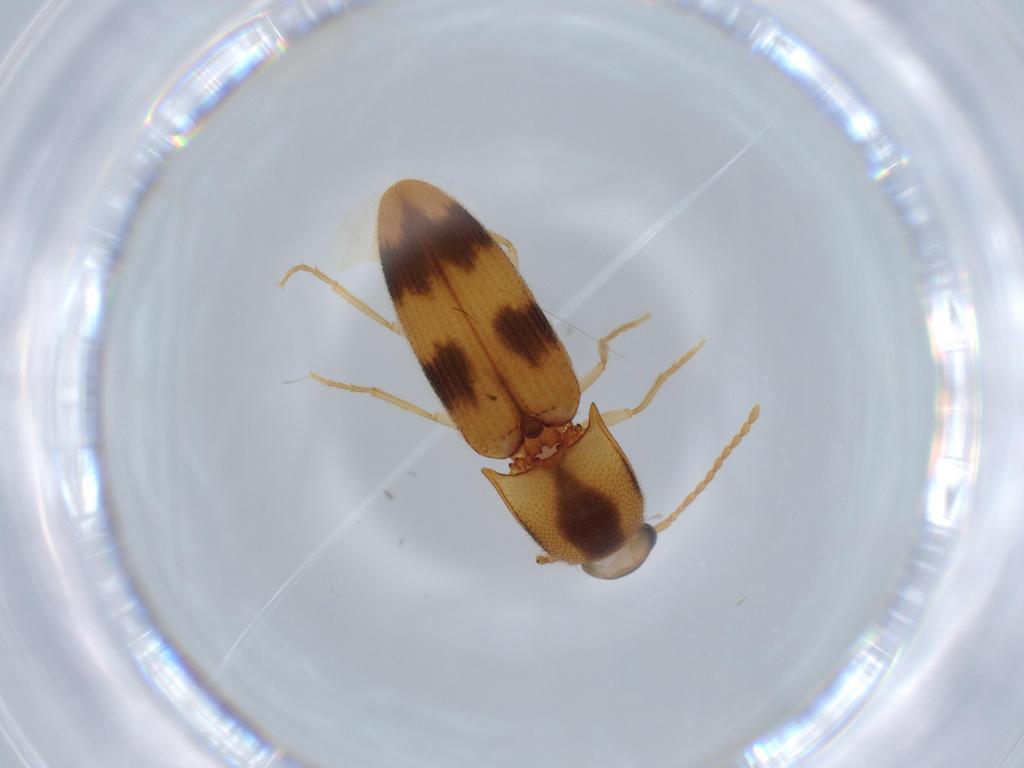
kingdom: Animalia
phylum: Arthropoda
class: Insecta
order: Coleoptera
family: Elateridae
